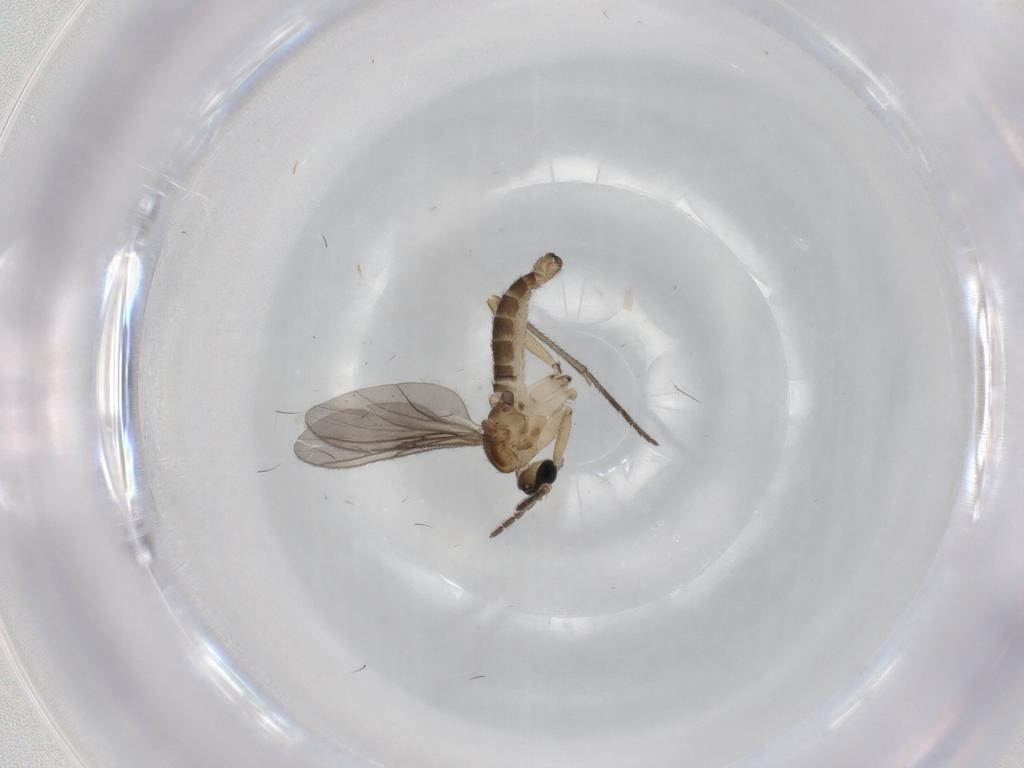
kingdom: Animalia
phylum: Arthropoda
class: Insecta
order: Diptera
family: Sciaridae
